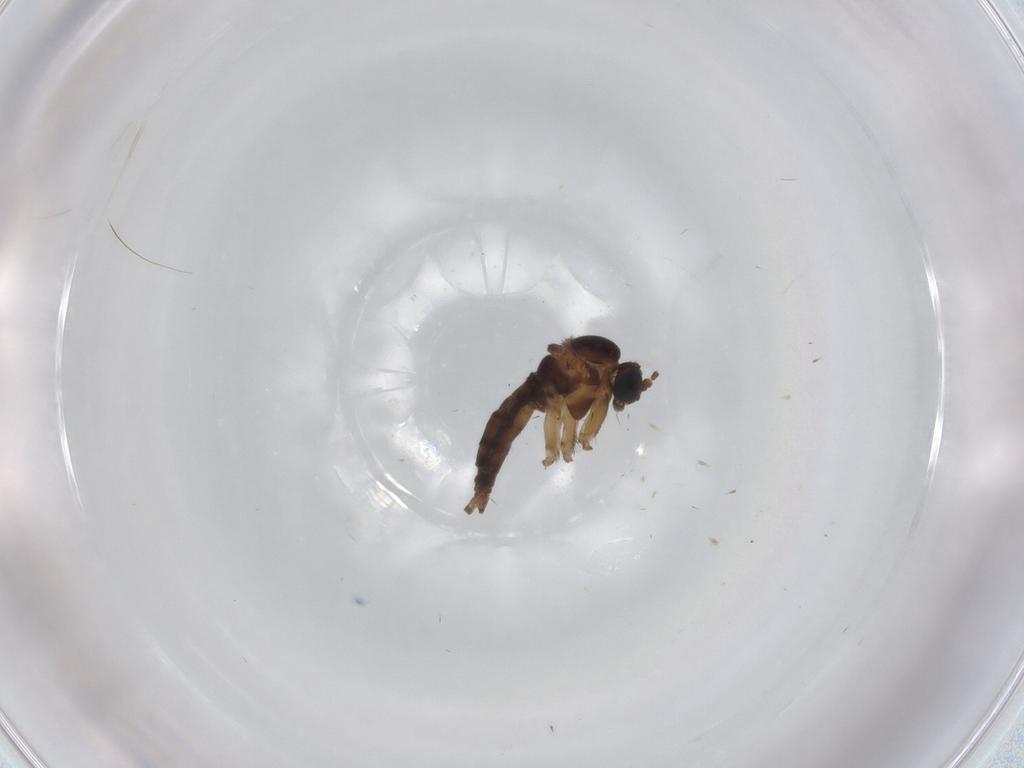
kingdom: Animalia
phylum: Arthropoda
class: Insecta
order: Diptera
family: Sciaridae
